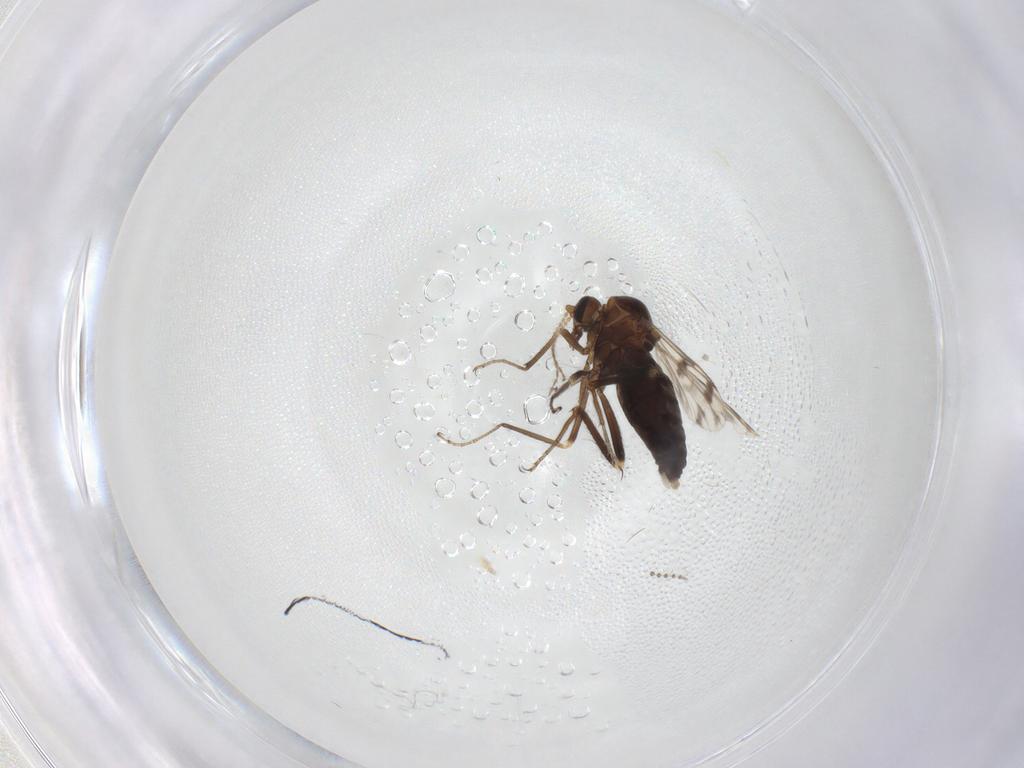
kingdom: Animalia
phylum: Arthropoda
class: Insecta
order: Diptera
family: Ceratopogonidae
